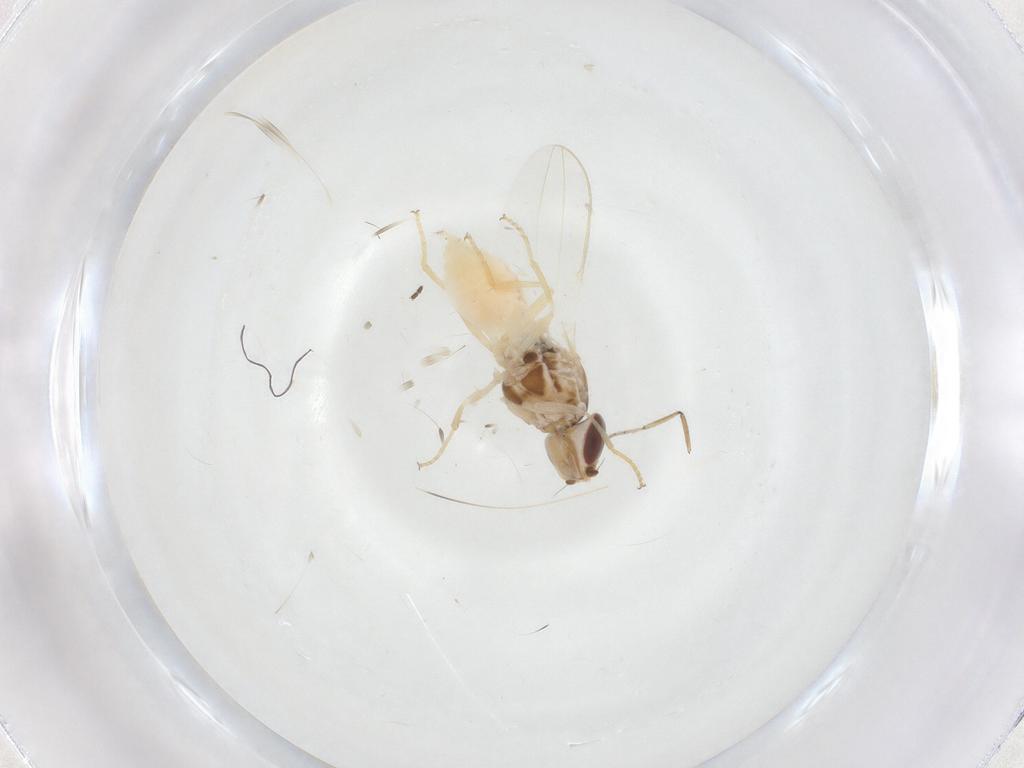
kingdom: Animalia
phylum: Arthropoda
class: Insecta
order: Diptera
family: Chloropidae
